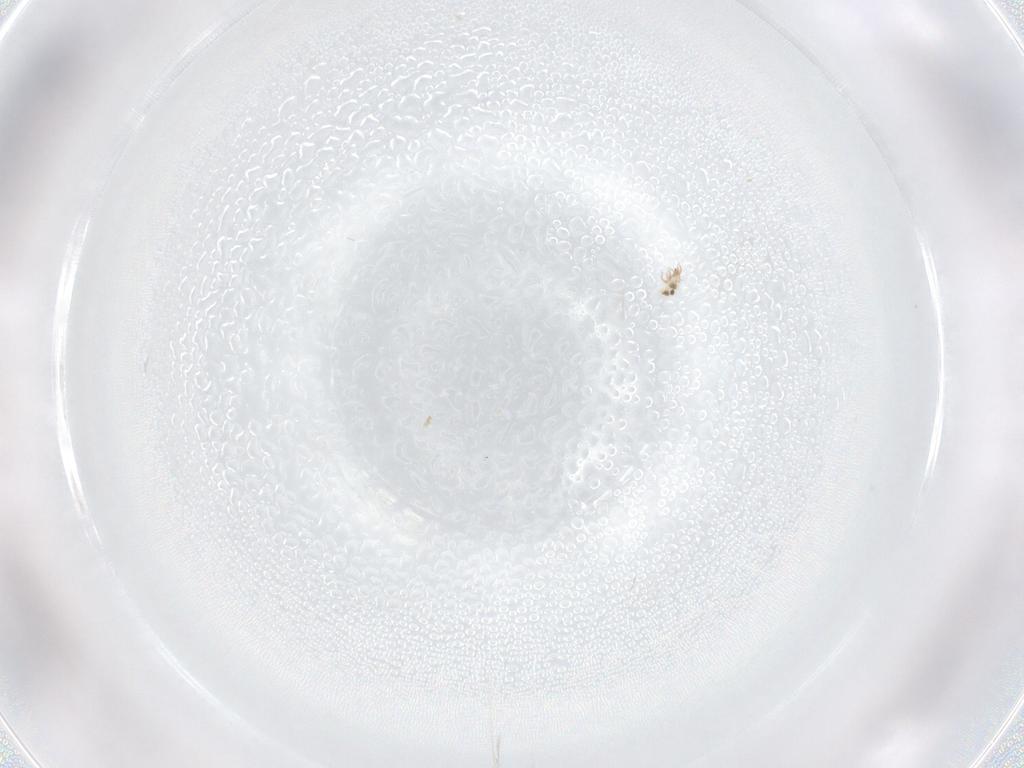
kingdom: Animalia
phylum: Arthropoda
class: Arachnida
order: Sarcoptiformes
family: Humerobatidae
